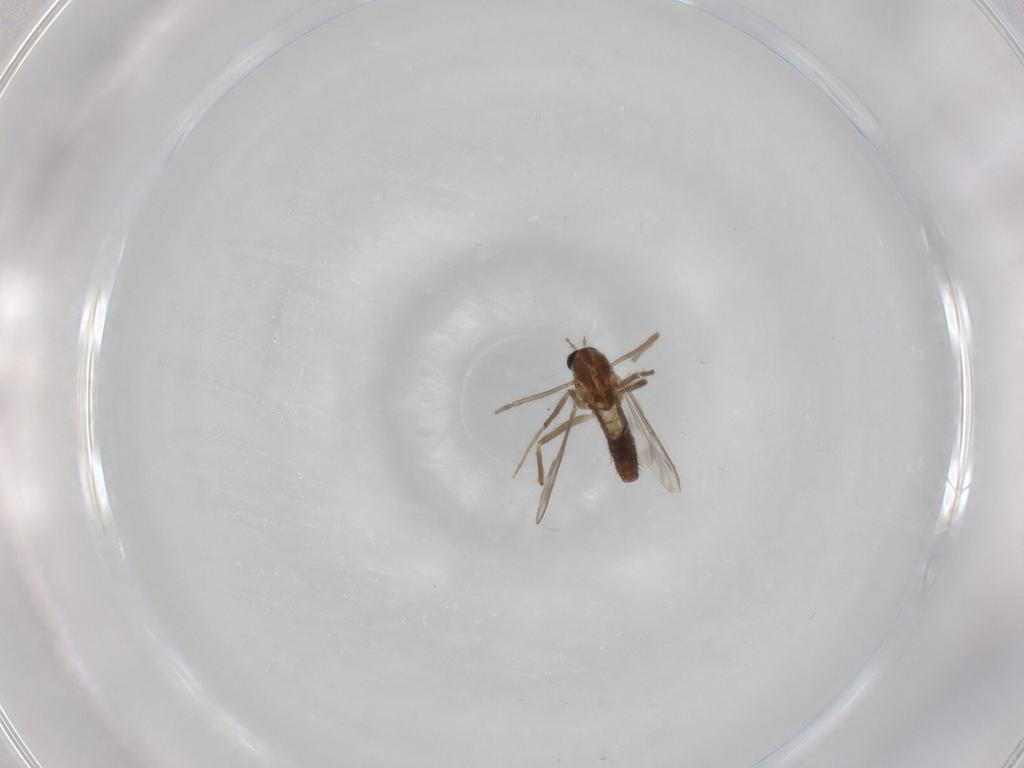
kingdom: Animalia
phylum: Arthropoda
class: Insecta
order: Diptera
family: Chironomidae
